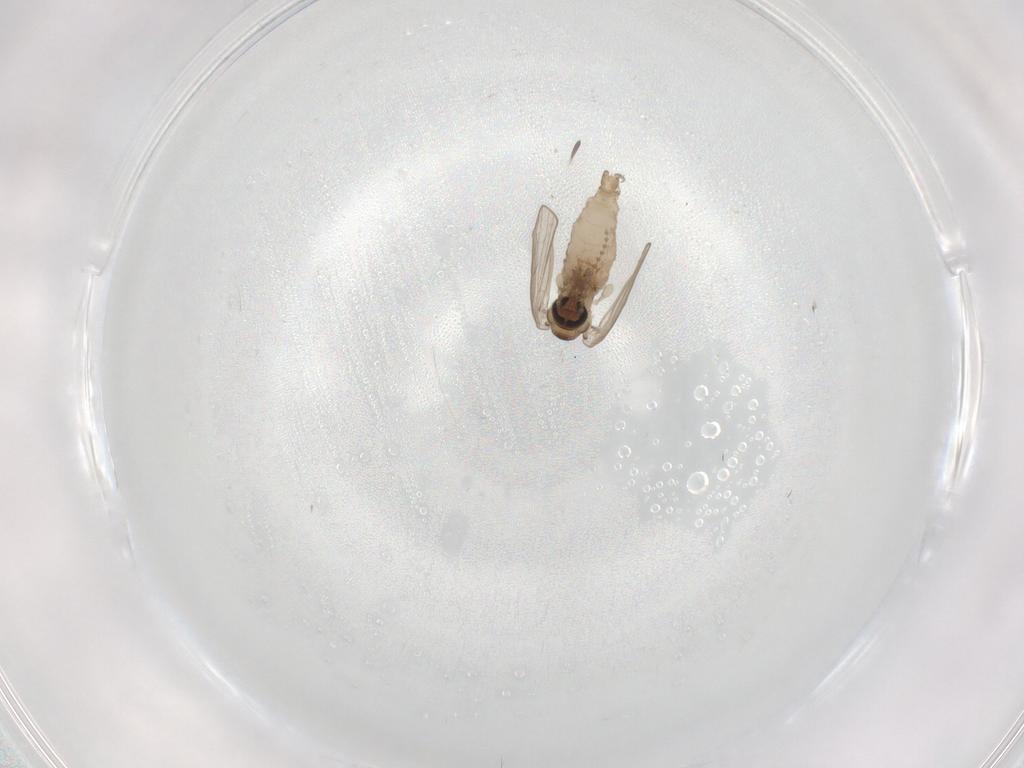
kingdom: Animalia
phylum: Arthropoda
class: Insecta
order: Diptera
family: Psychodidae
